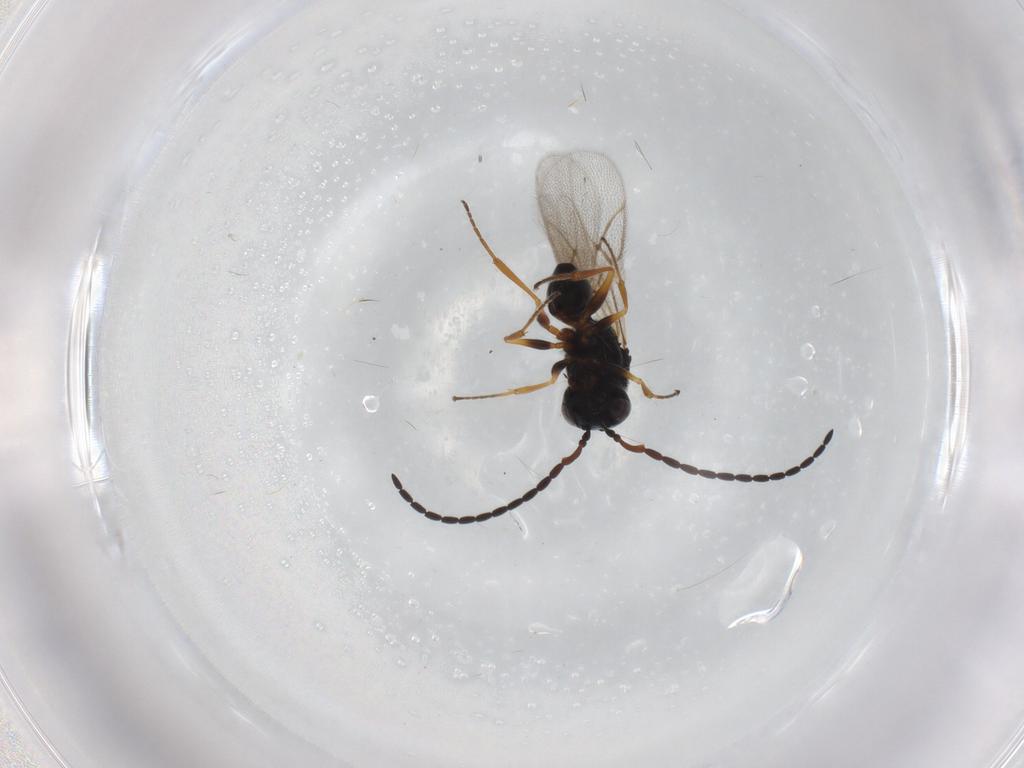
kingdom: Animalia
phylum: Arthropoda
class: Insecta
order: Hymenoptera
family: Figitidae
